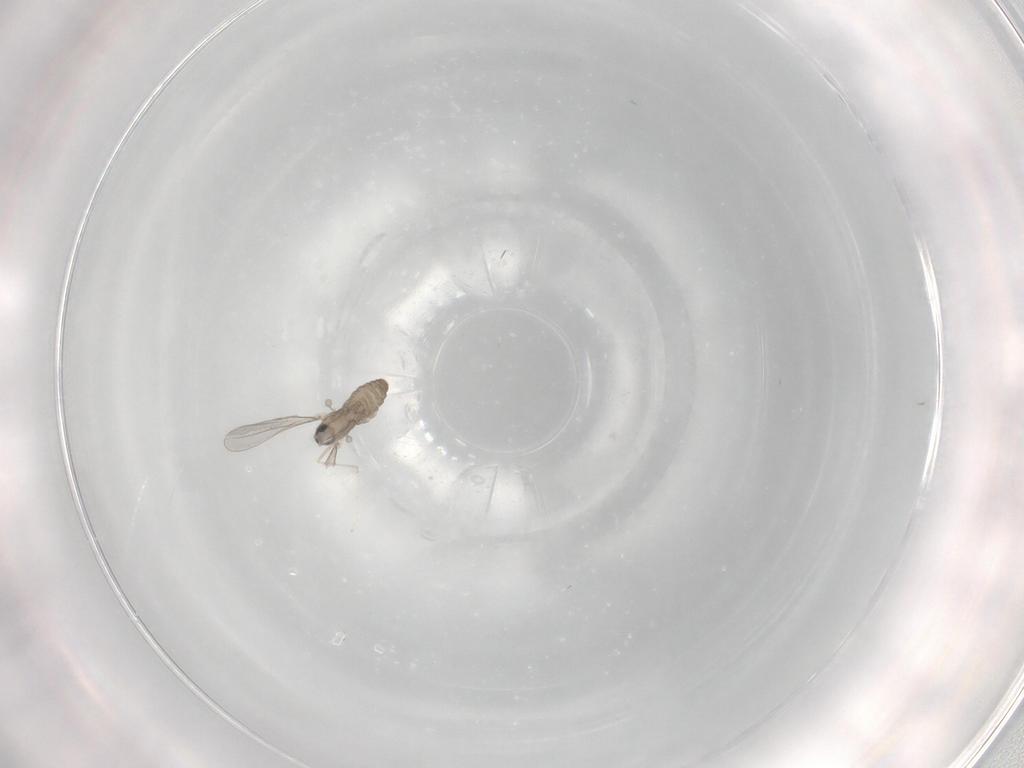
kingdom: Animalia
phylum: Arthropoda
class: Insecta
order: Diptera
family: Cecidomyiidae
